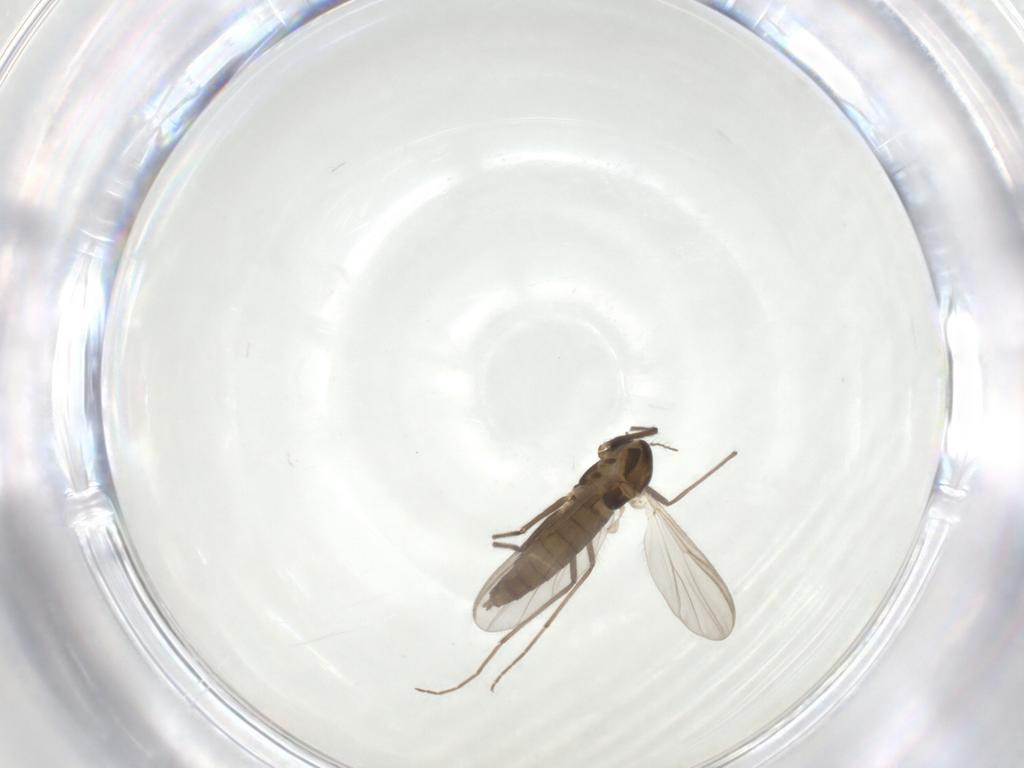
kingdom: Animalia
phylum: Arthropoda
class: Insecta
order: Diptera
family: Chironomidae
